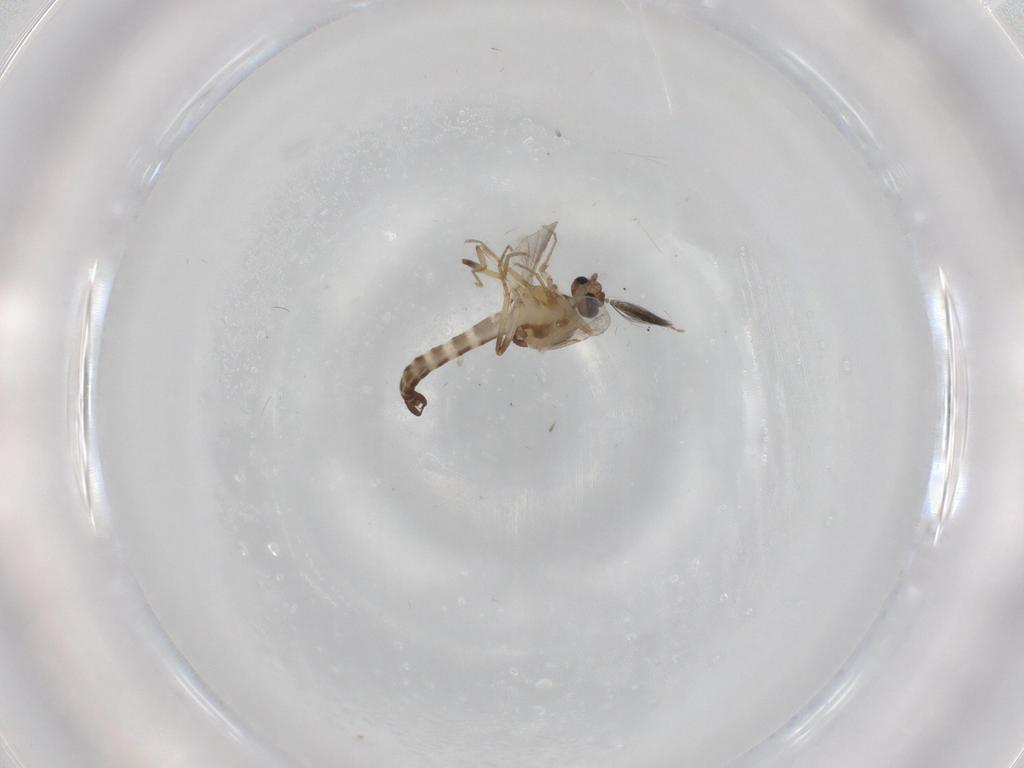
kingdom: Animalia
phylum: Arthropoda
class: Insecta
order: Diptera
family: Ceratopogonidae
